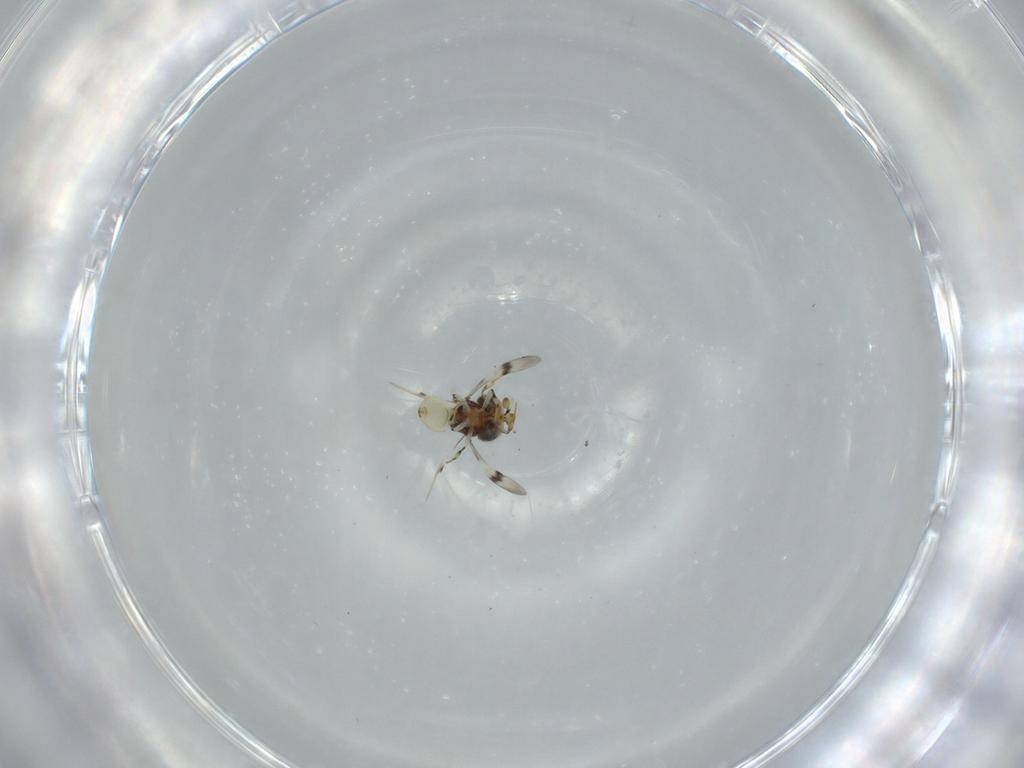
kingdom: Animalia
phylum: Arthropoda
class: Insecta
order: Hymenoptera
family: Scelionidae
